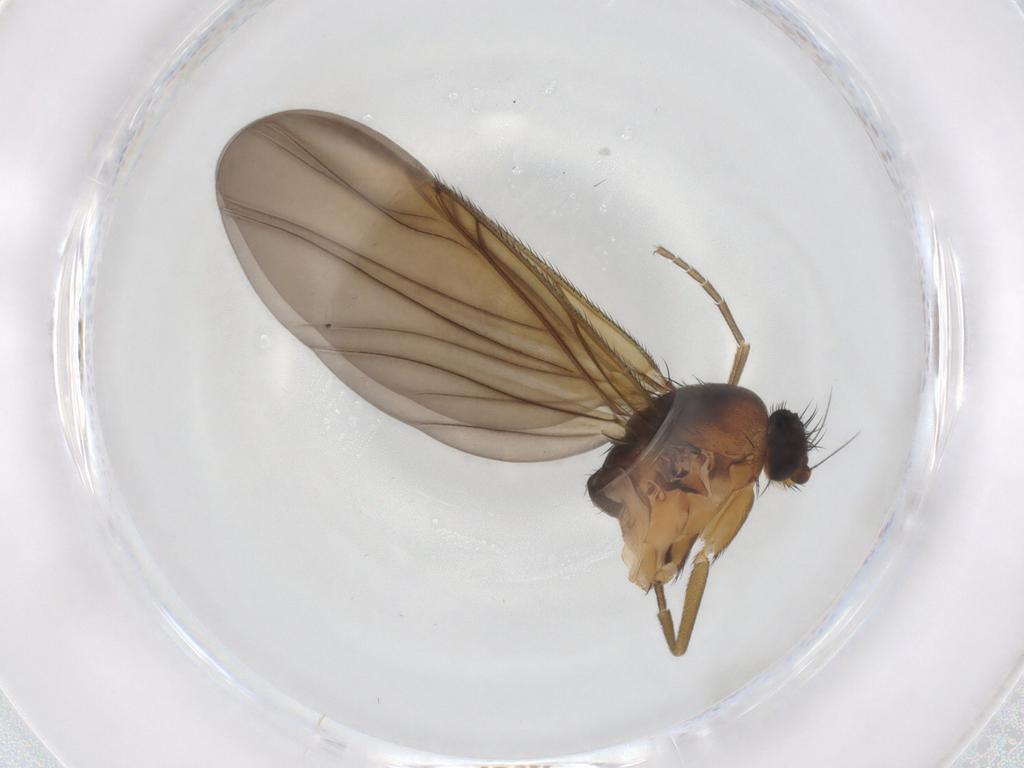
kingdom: Animalia
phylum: Arthropoda
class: Insecta
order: Diptera
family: Phoridae
